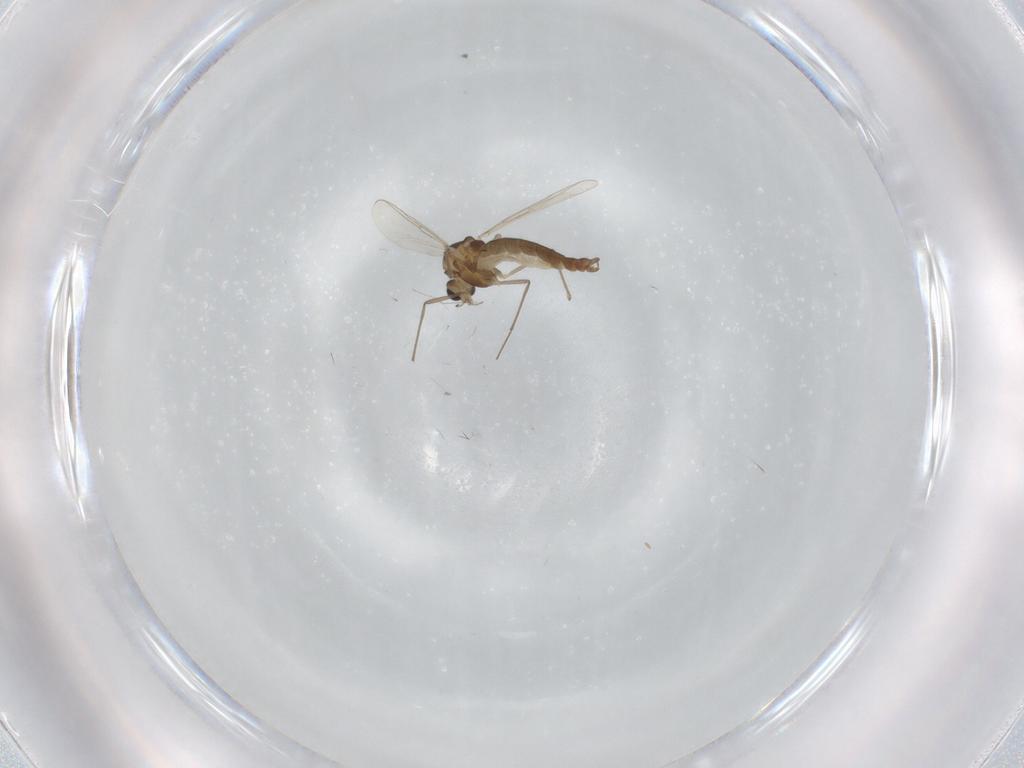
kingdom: Animalia
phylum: Arthropoda
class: Insecta
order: Diptera
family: Chironomidae
